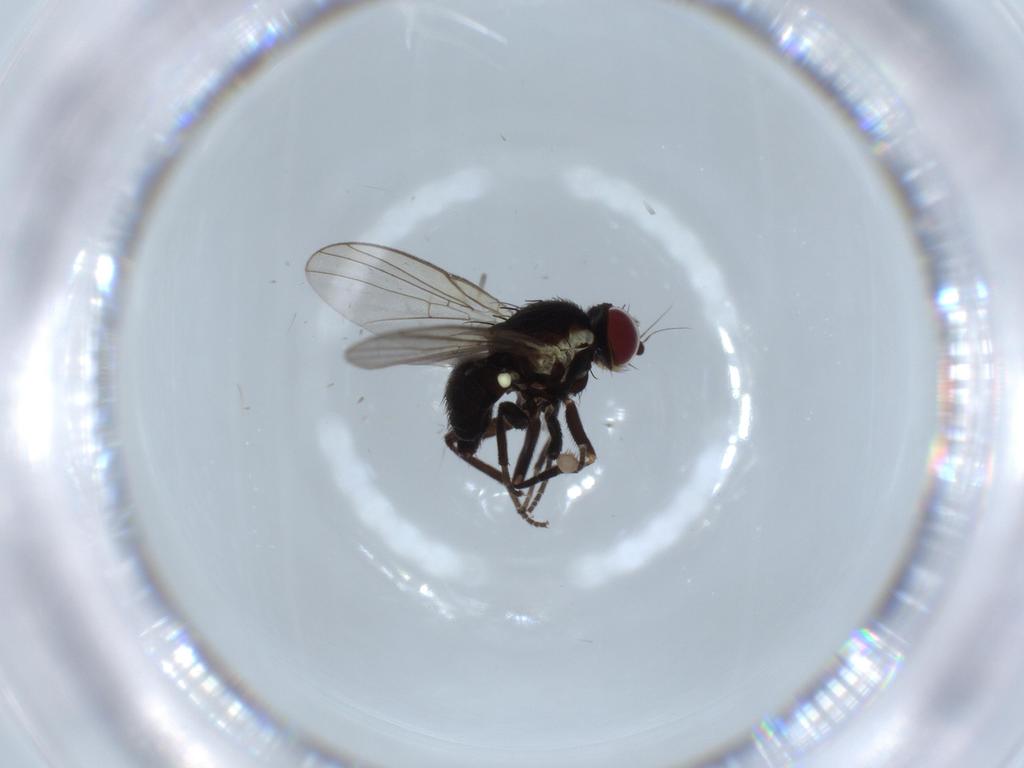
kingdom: Animalia
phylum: Arthropoda
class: Insecta
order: Diptera
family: Agromyzidae
